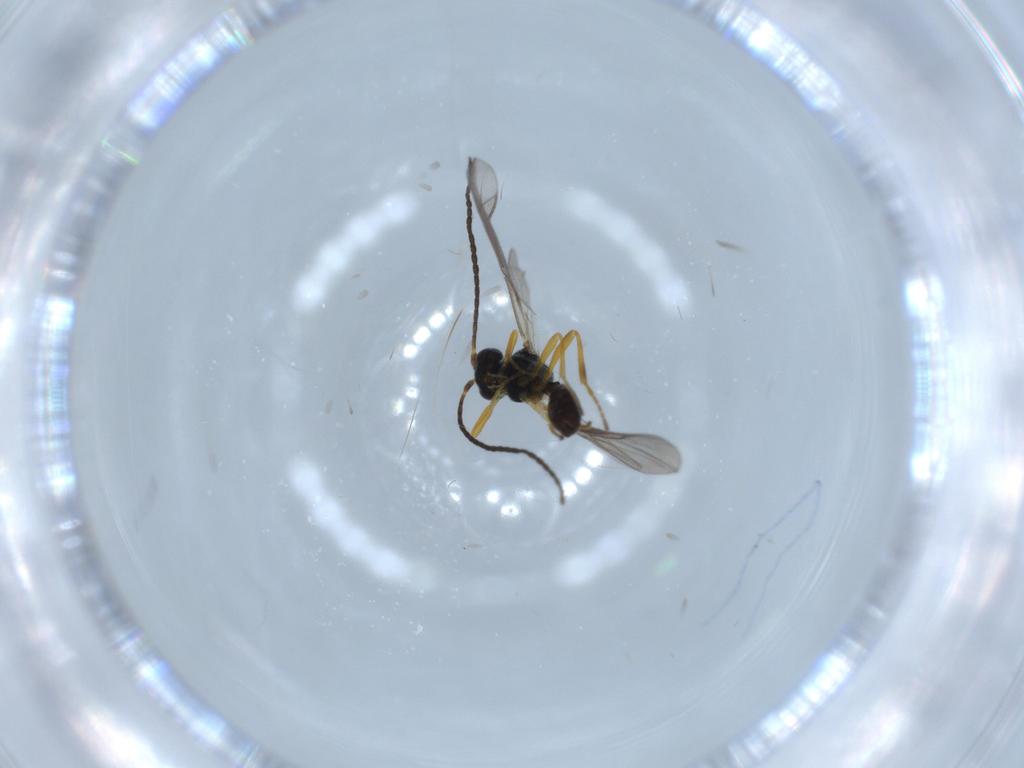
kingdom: Animalia
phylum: Arthropoda
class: Insecta
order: Hymenoptera
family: Braconidae
